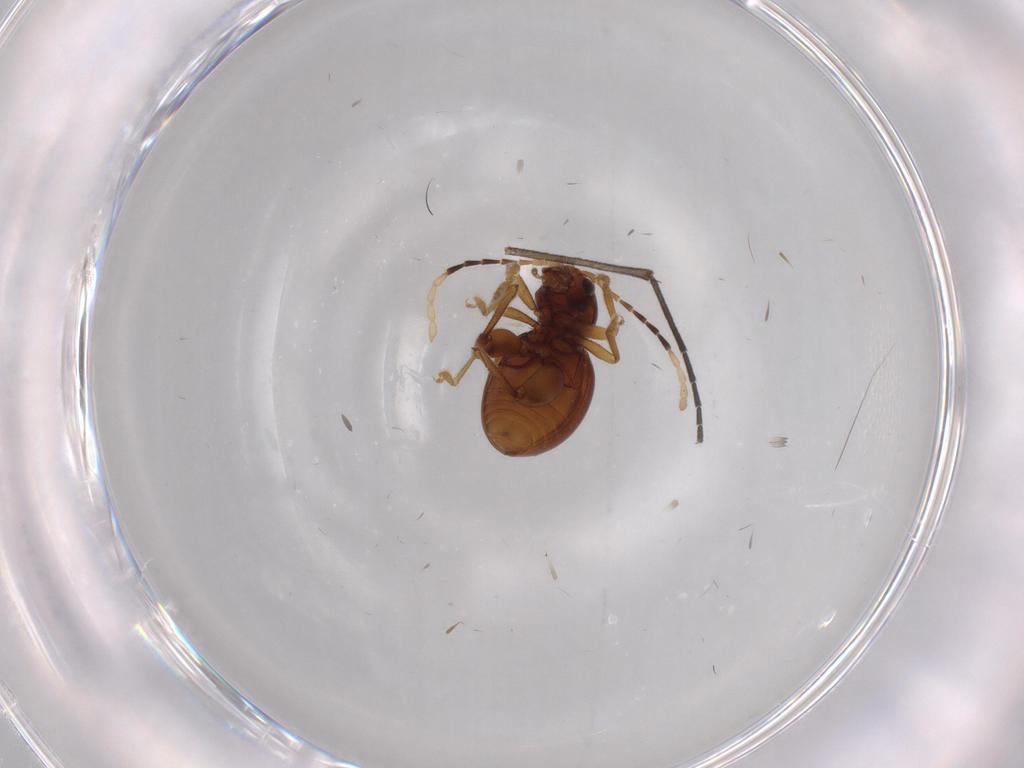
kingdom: Animalia
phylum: Arthropoda
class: Insecta
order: Coleoptera
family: Chrysomelidae
